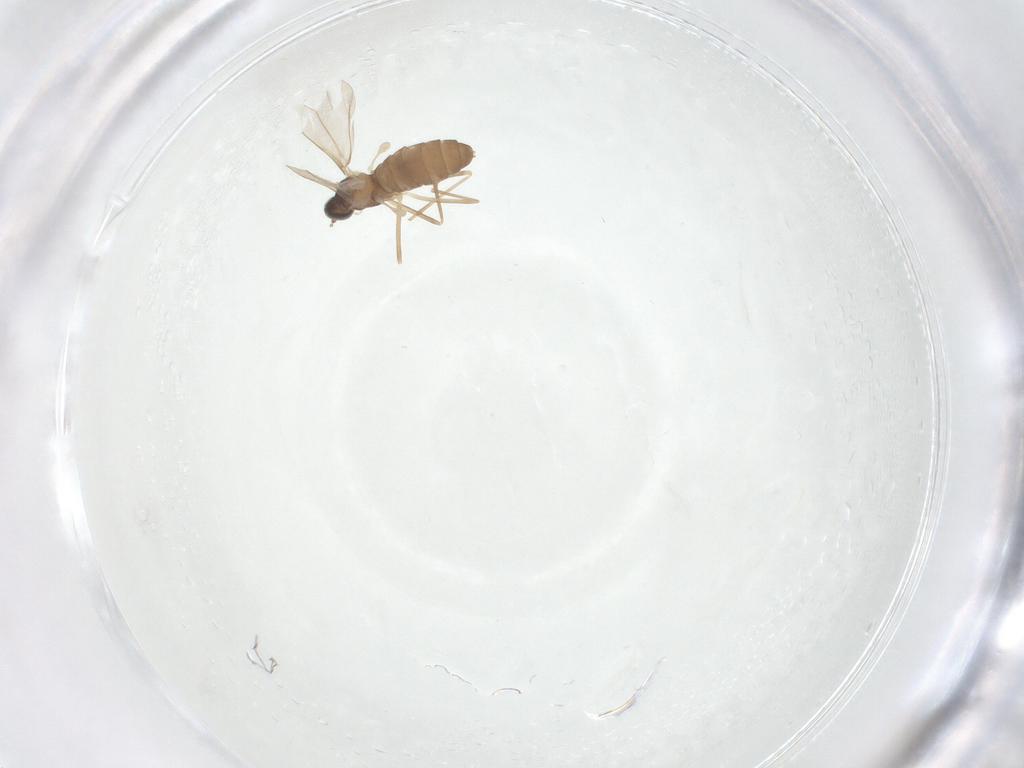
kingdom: Animalia
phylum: Arthropoda
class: Insecta
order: Diptera
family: Cecidomyiidae
